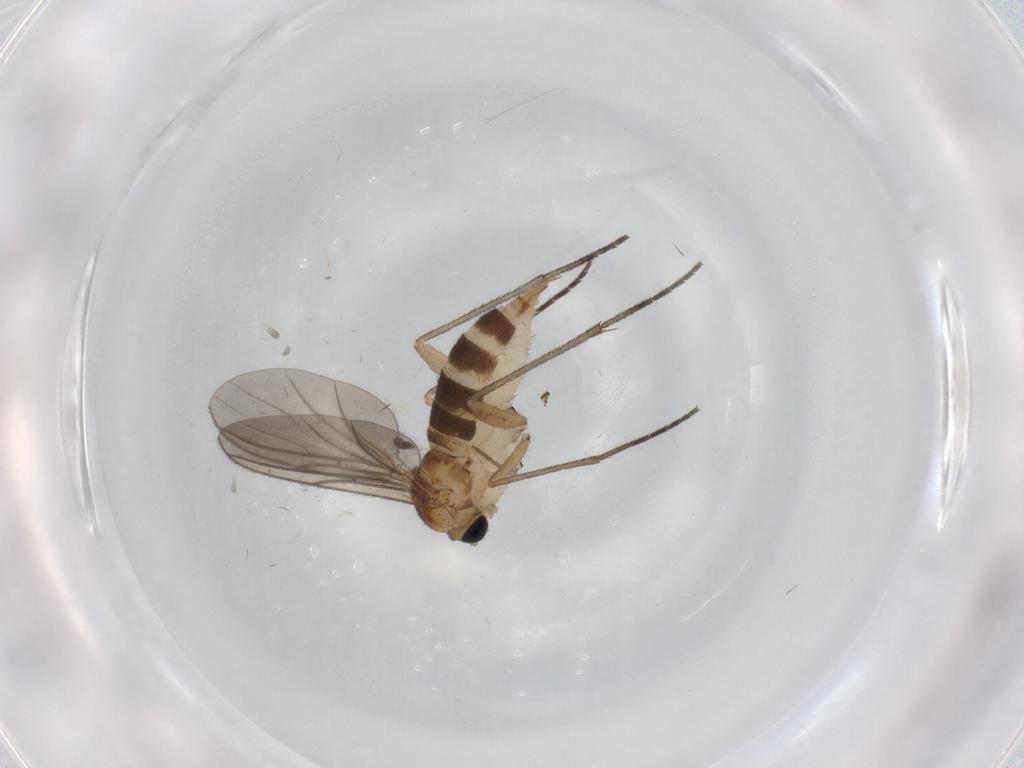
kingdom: Animalia
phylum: Arthropoda
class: Insecta
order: Diptera
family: Sciaridae
